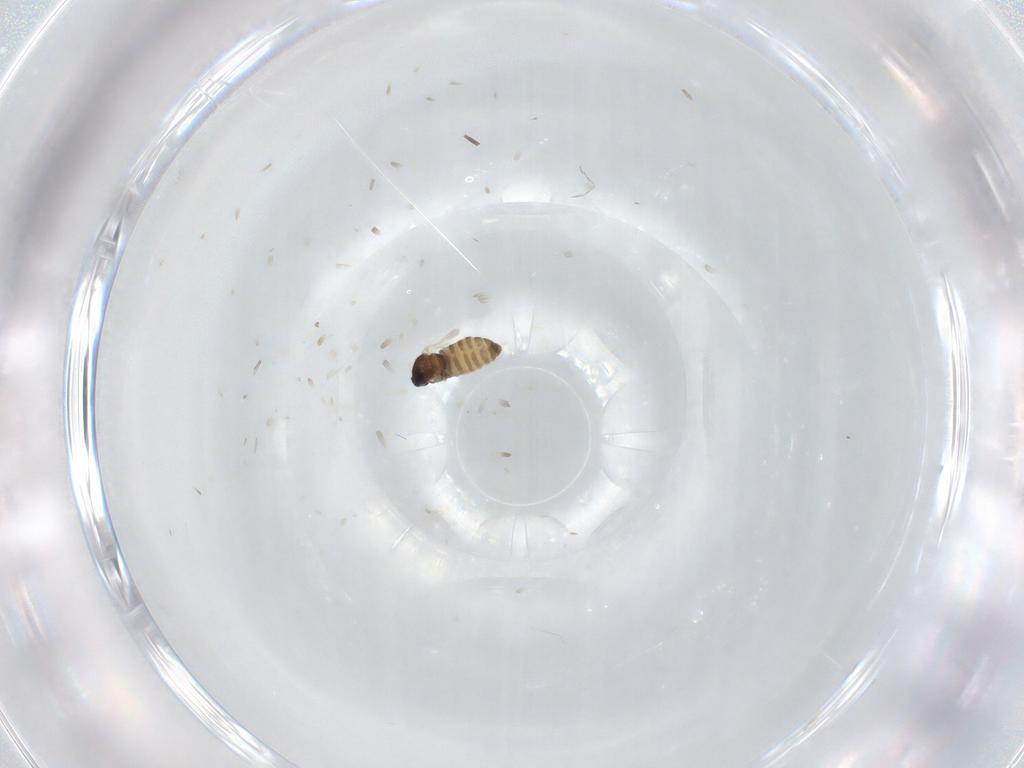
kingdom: Animalia
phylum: Arthropoda
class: Insecta
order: Diptera
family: Cecidomyiidae
